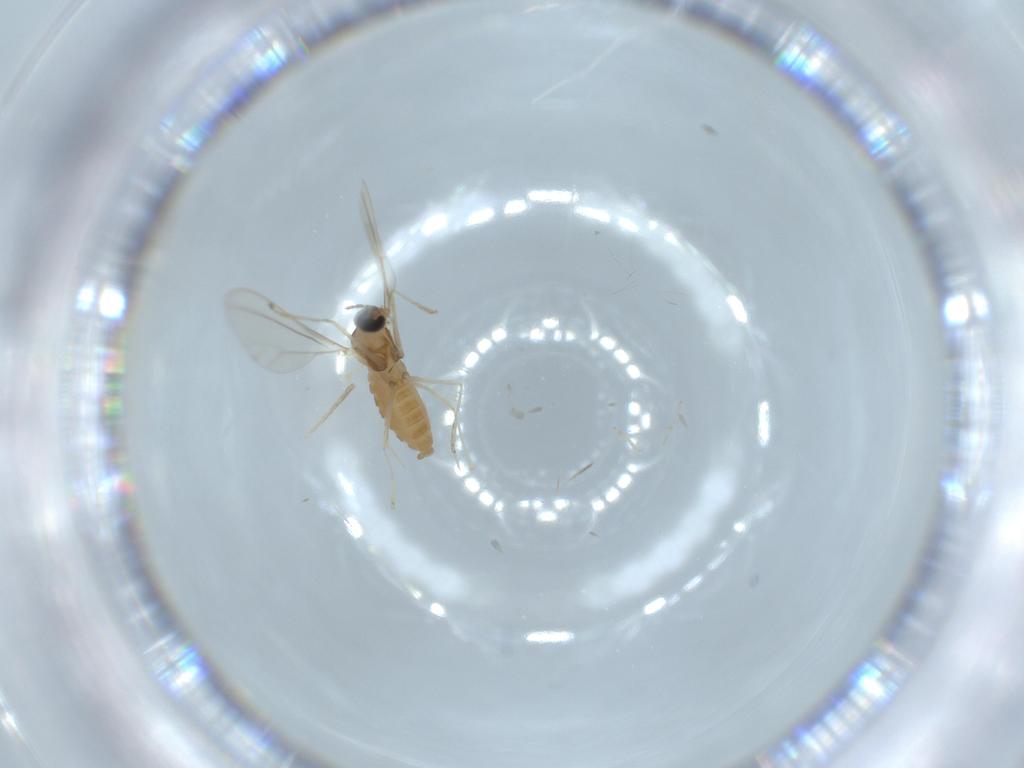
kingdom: Animalia
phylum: Arthropoda
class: Insecta
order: Diptera
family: Cecidomyiidae
